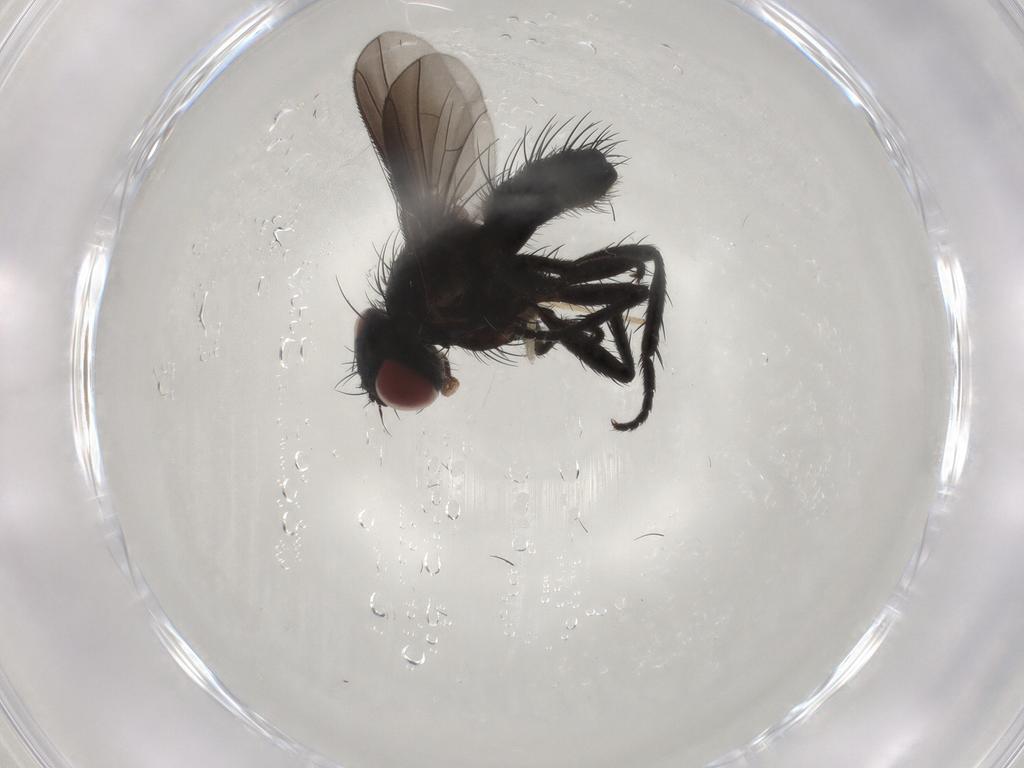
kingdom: Animalia
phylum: Arthropoda
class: Insecta
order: Diptera
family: Tachinidae
